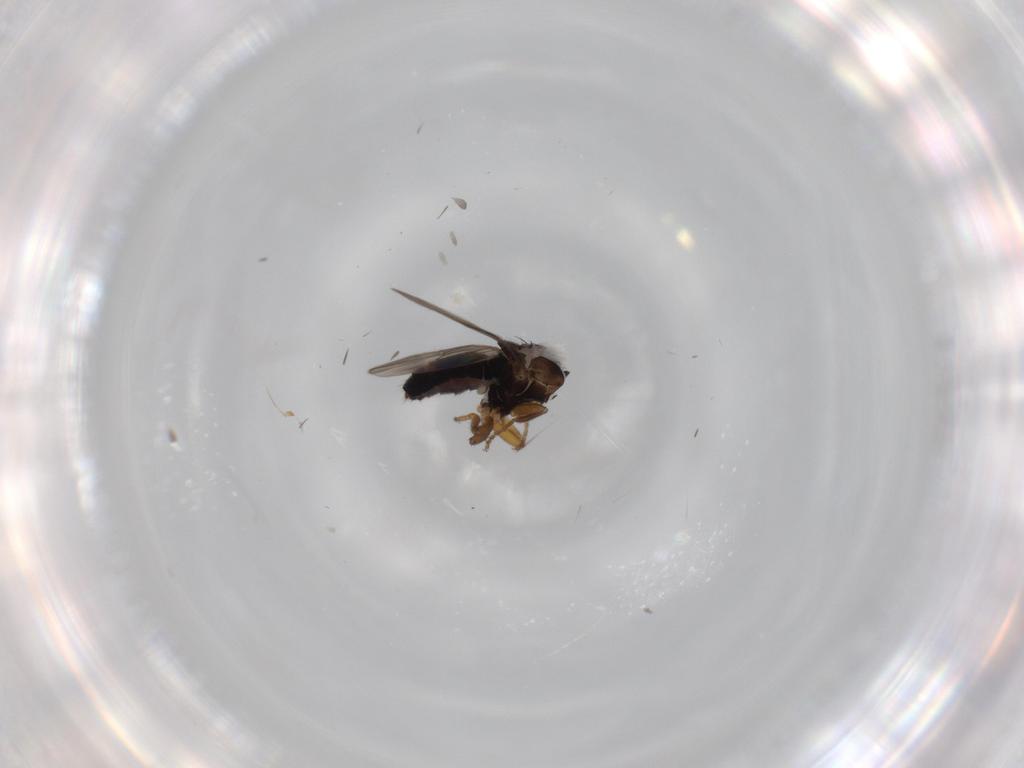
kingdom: Animalia
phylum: Arthropoda
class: Insecta
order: Diptera
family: Sphaeroceridae
